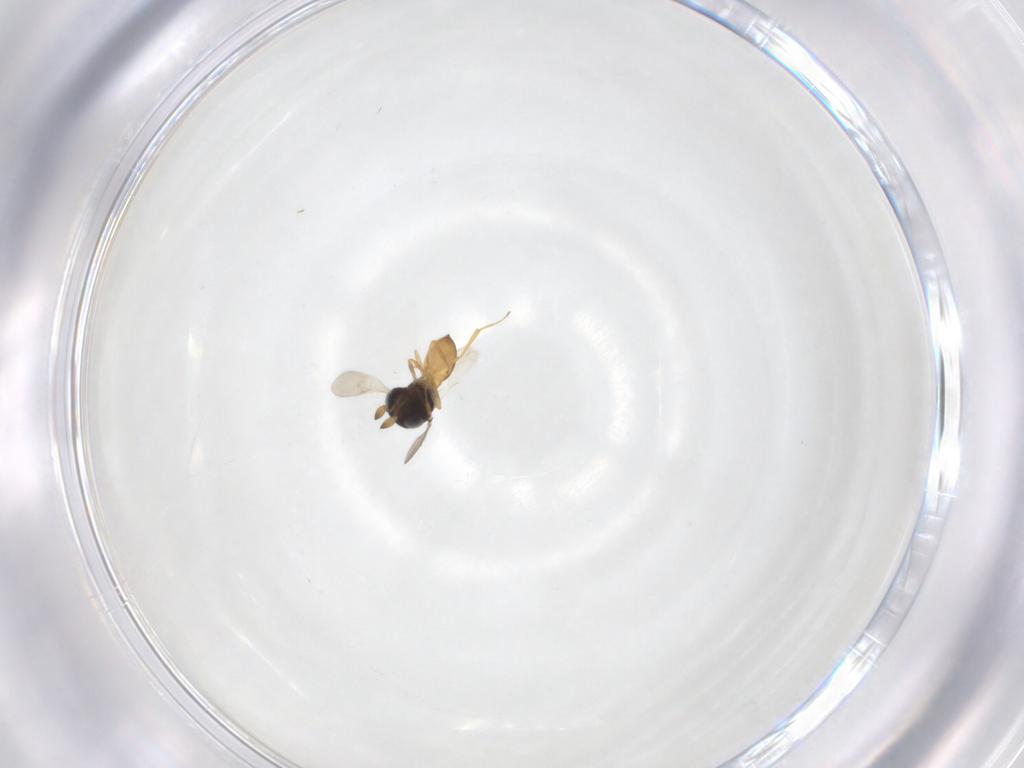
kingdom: Animalia
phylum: Arthropoda
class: Insecta
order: Hymenoptera
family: Scelionidae
